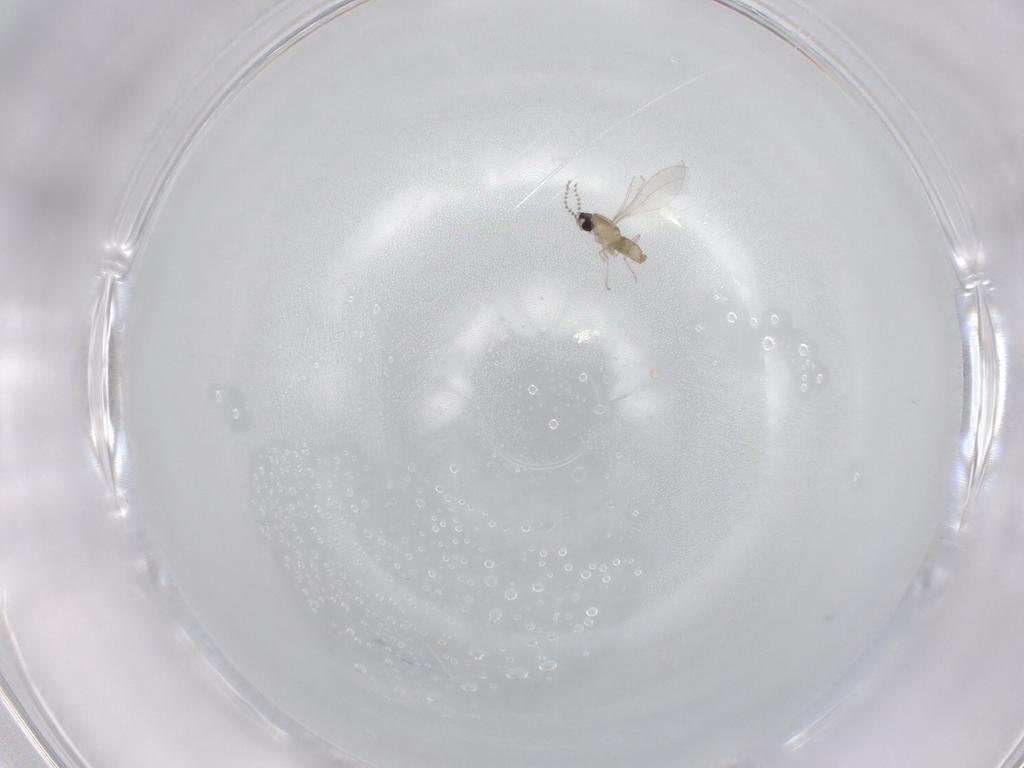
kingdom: Animalia
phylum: Arthropoda
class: Insecta
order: Diptera
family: Cecidomyiidae
